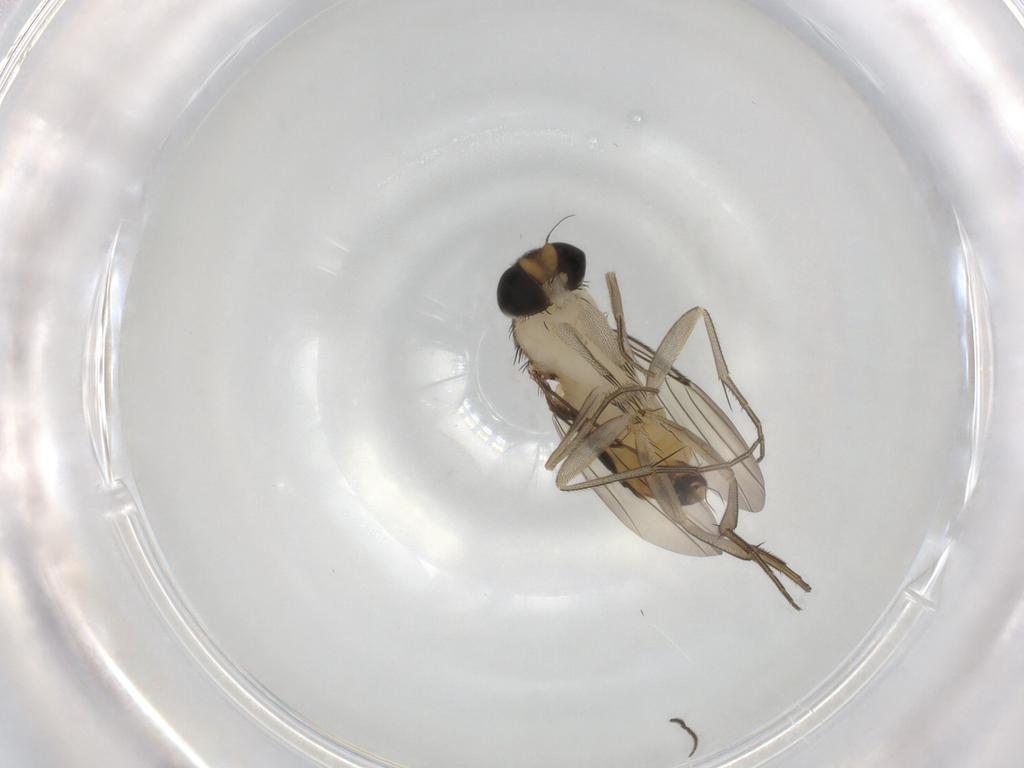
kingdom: Animalia
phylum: Arthropoda
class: Insecta
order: Diptera
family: Phoridae
